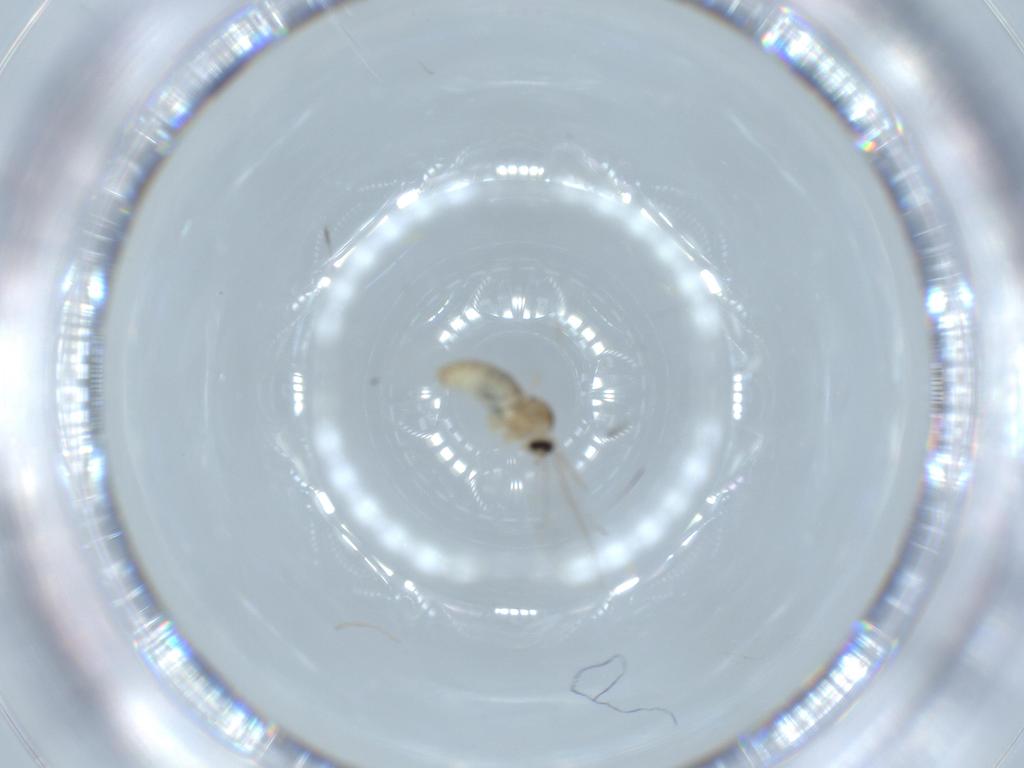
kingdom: Animalia
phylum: Arthropoda
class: Insecta
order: Diptera
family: Cecidomyiidae
